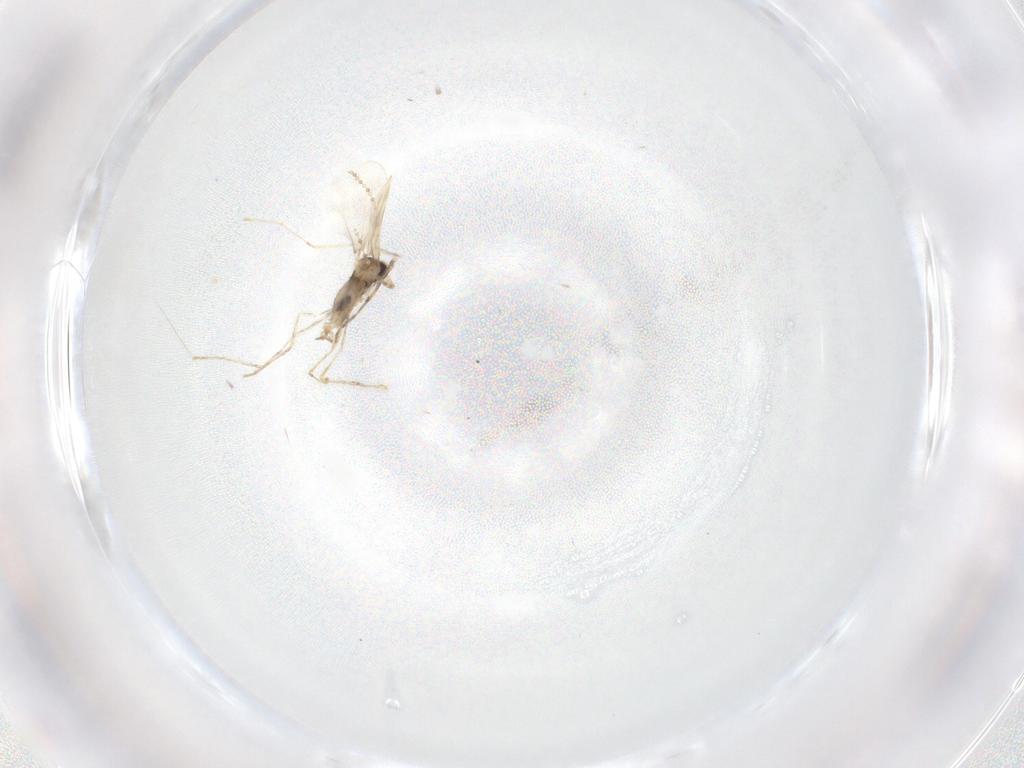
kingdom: Animalia
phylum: Arthropoda
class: Insecta
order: Diptera
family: Cecidomyiidae
